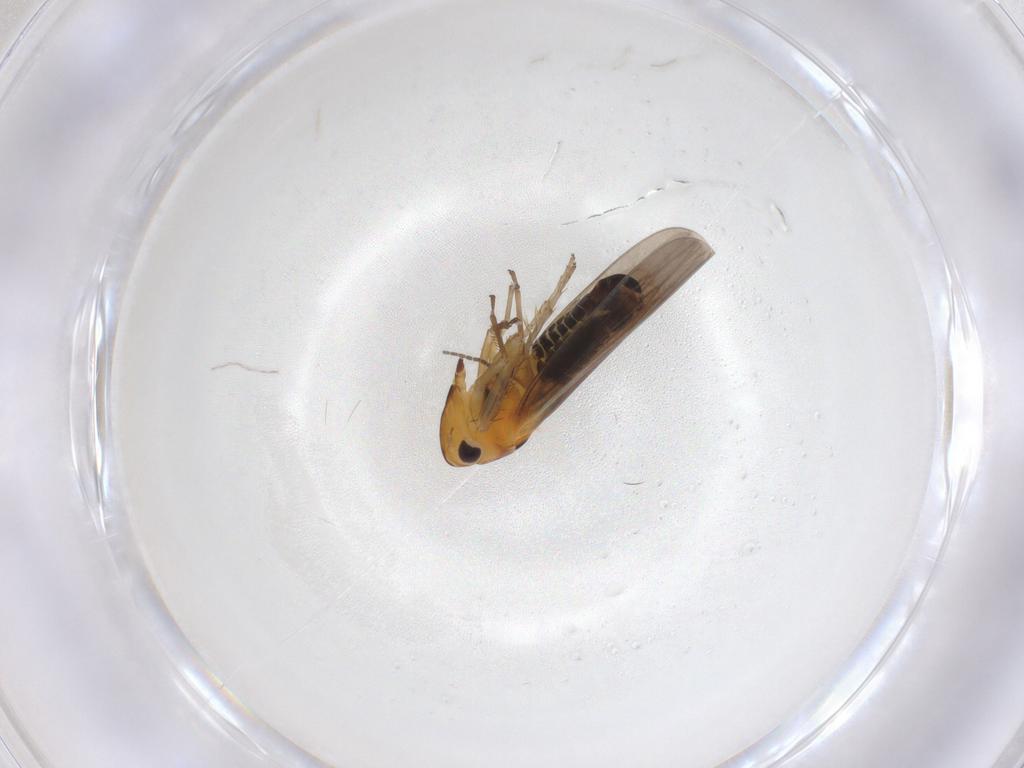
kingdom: Animalia
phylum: Arthropoda
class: Insecta
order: Hemiptera
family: Cicadellidae
